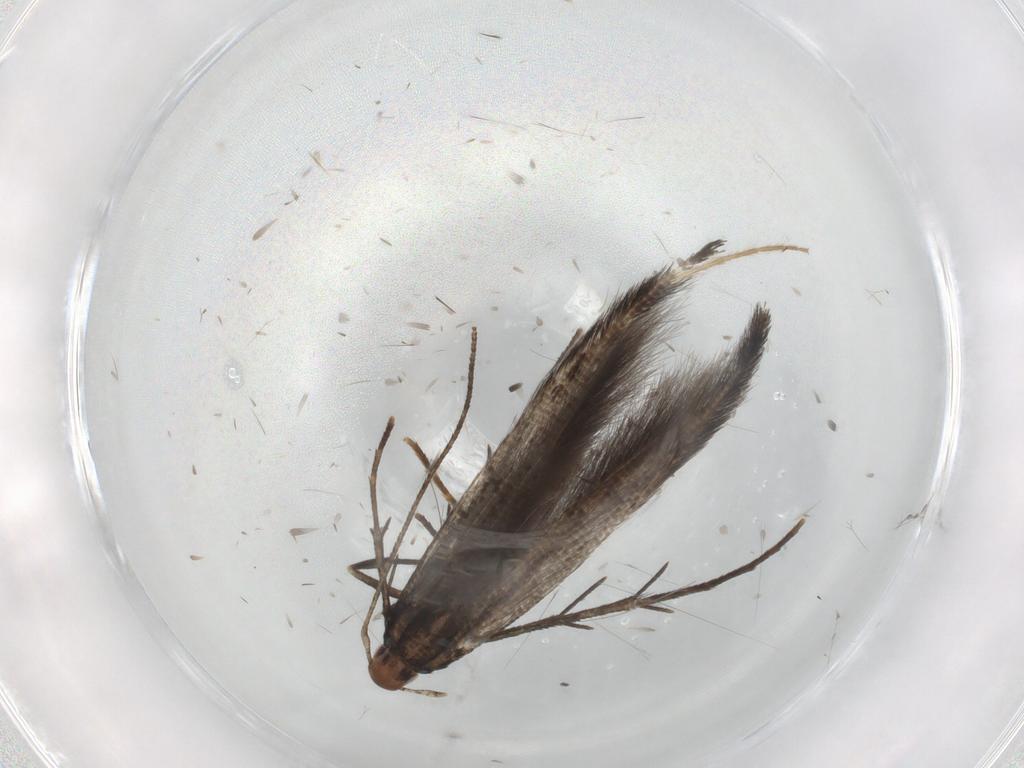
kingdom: Animalia
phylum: Arthropoda
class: Insecta
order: Lepidoptera
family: Cosmopterigidae
